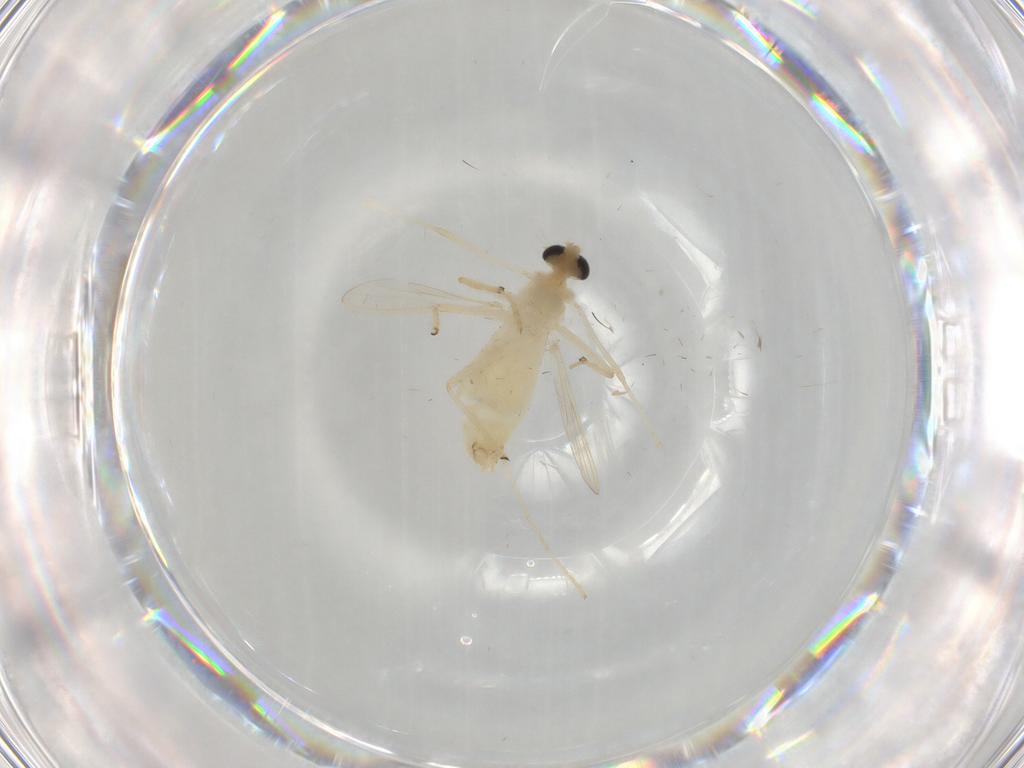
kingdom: Animalia
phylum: Arthropoda
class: Insecta
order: Diptera
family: Chironomidae
